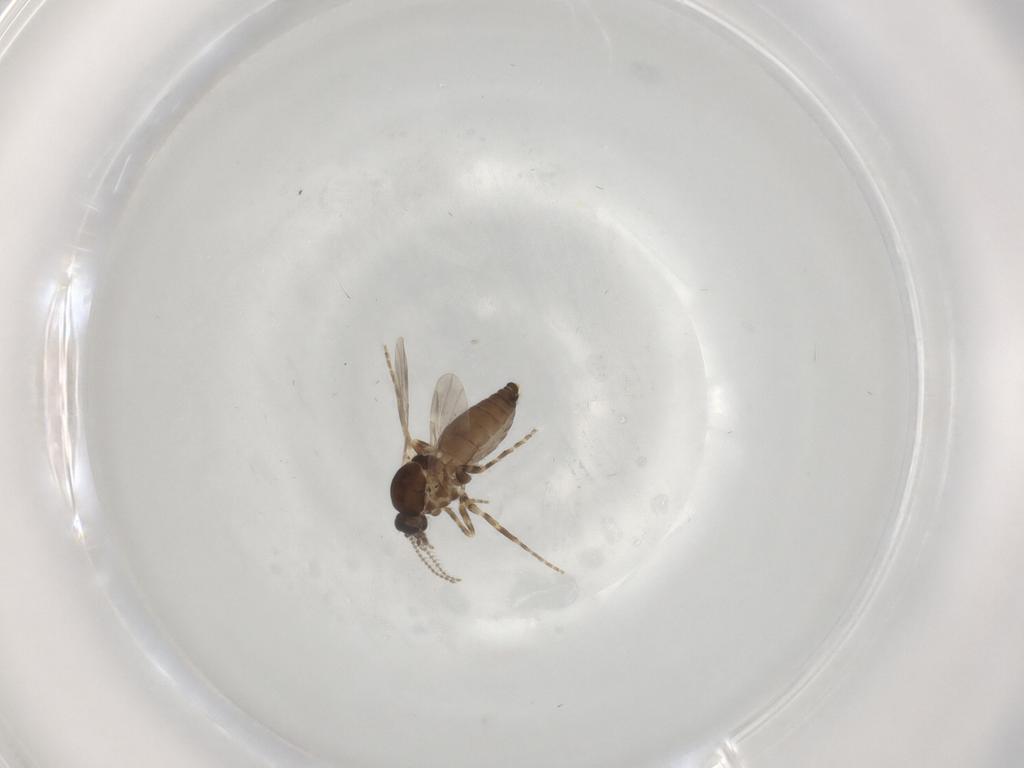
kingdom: Animalia
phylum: Arthropoda
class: Insecta
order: Diptera
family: Ceratopogonidae
